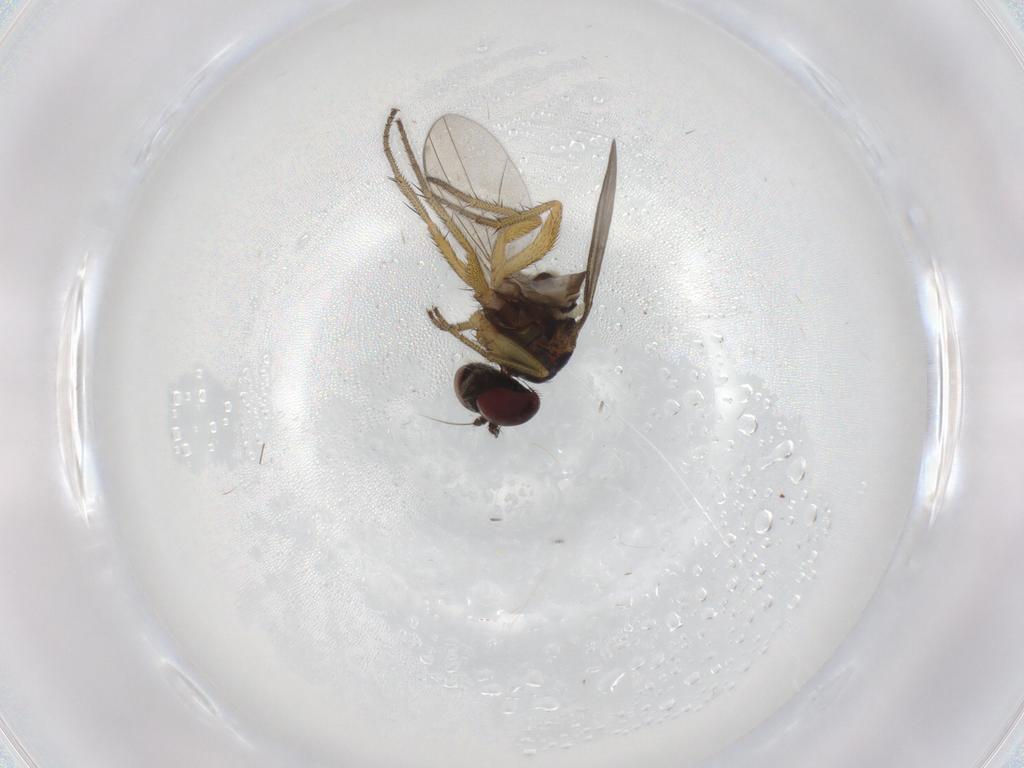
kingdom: Animalia
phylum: Arthropoda
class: Insecta
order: Diptera
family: Dolichopodidae
